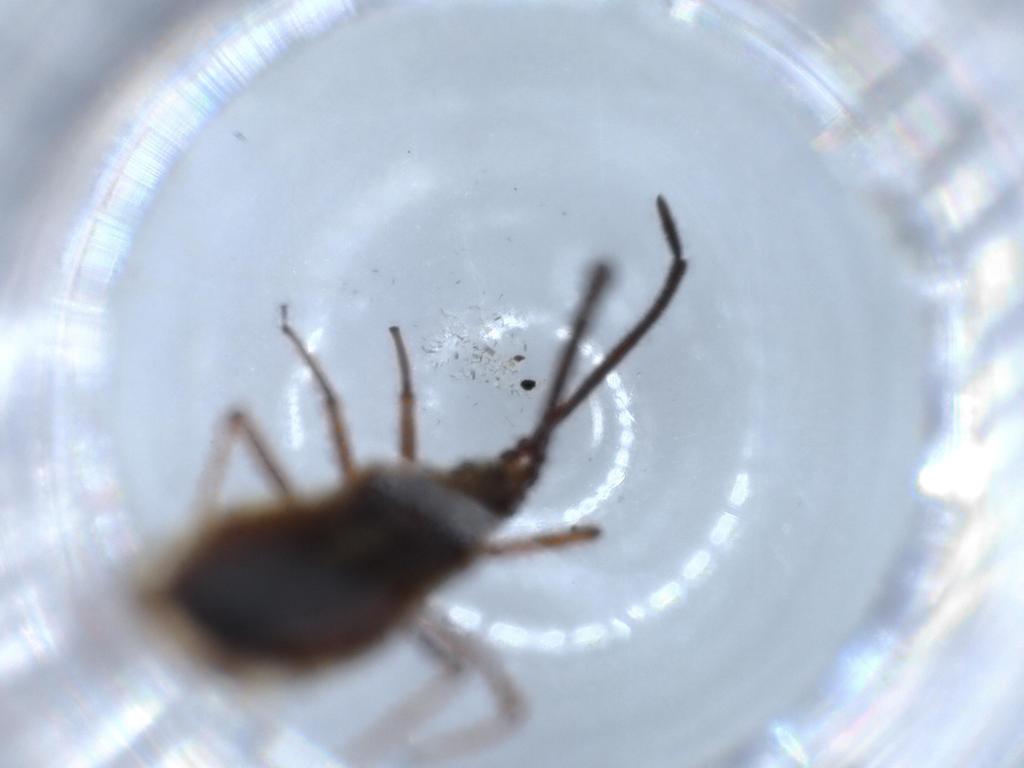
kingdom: Animalia
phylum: Arthropoda
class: Insecta
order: Hemiptera
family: Tingidae
